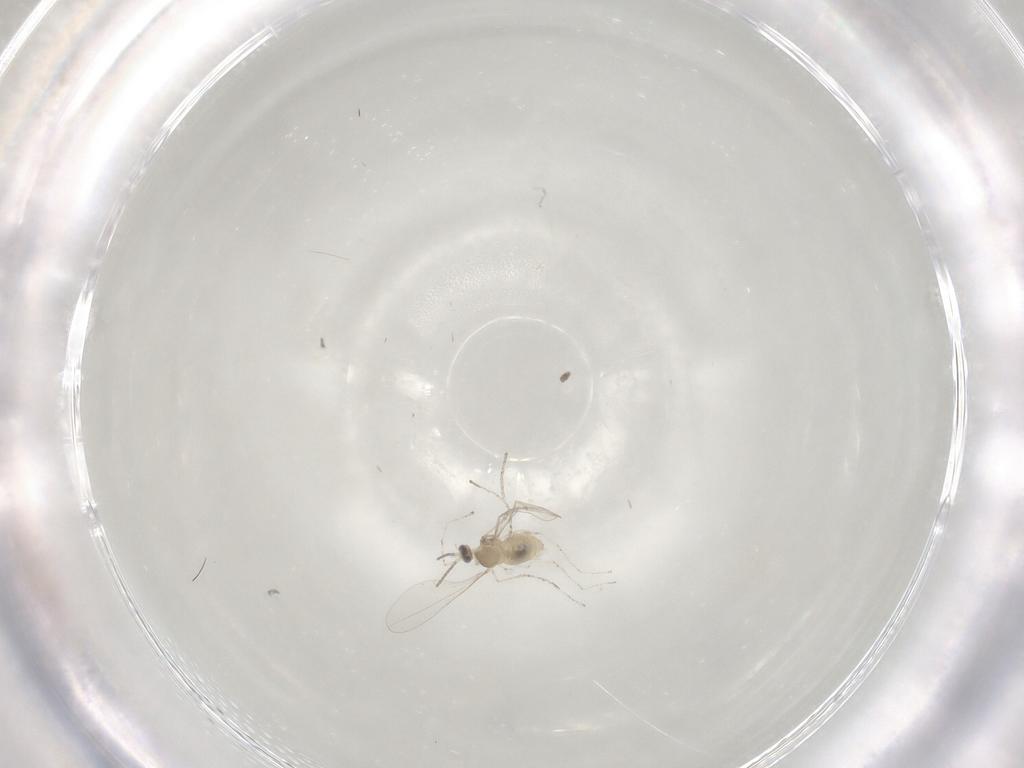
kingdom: Animalia
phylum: Arthropoda
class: Insecta
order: Diptera
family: Cecidomyiidae
